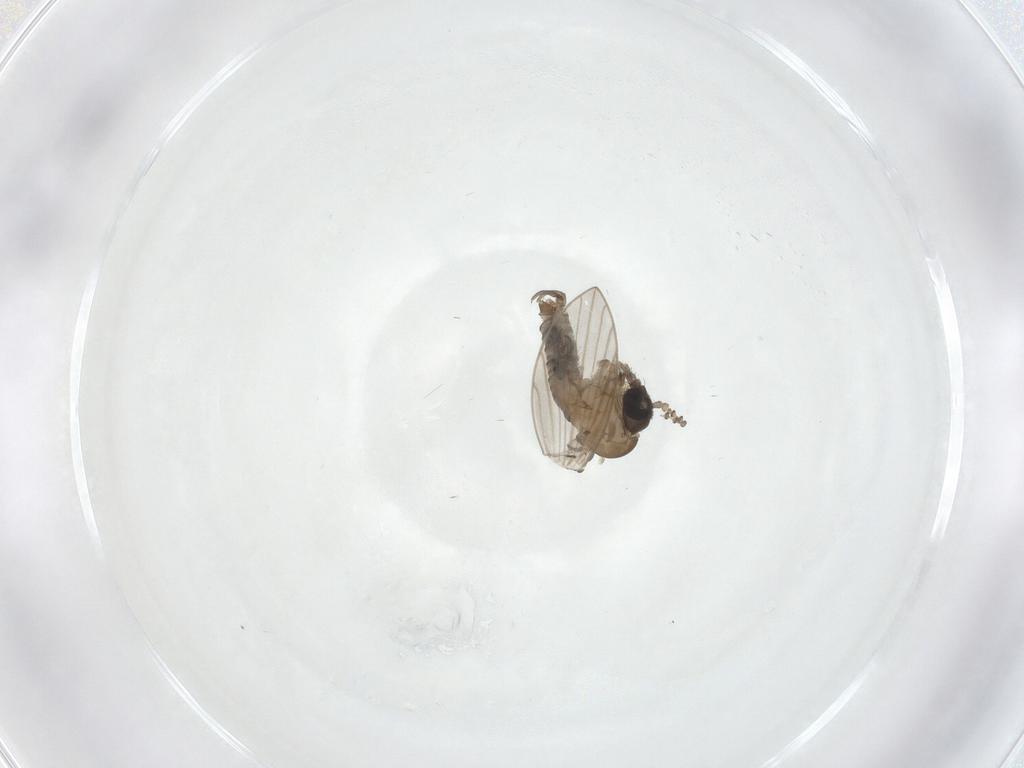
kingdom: Animalia
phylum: Arthropoda
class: Insecta
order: Diptera
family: Psychodidae
